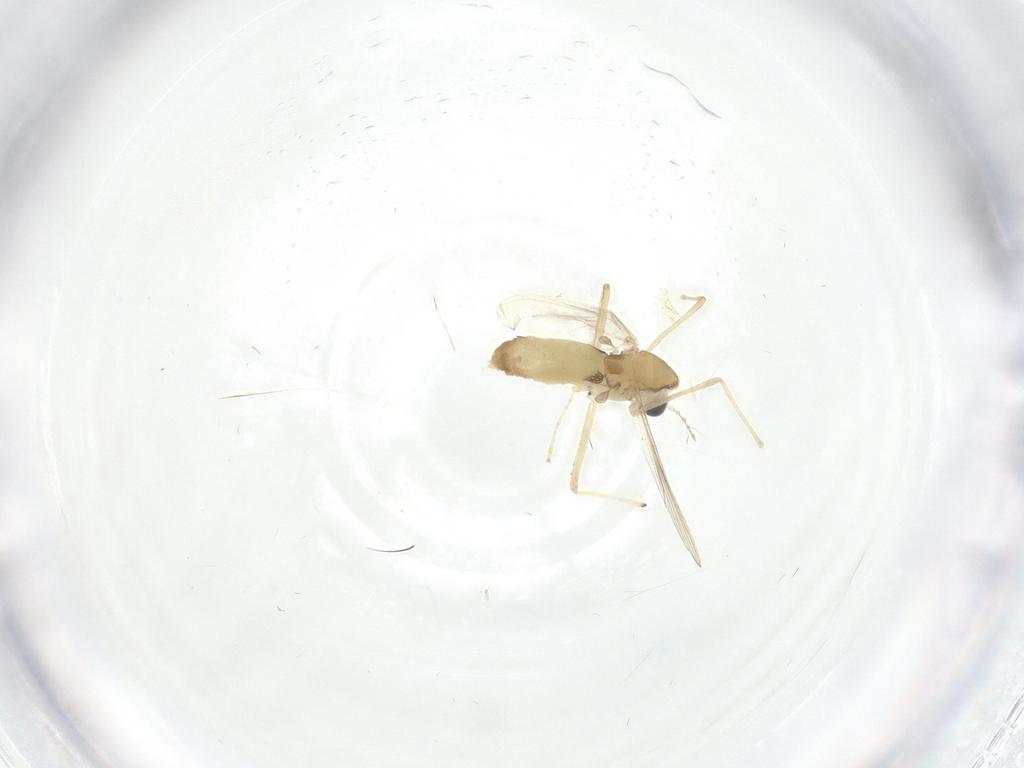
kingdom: Animalia
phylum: Arthropoda
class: Insecta
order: Diptera
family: Chironomidae
